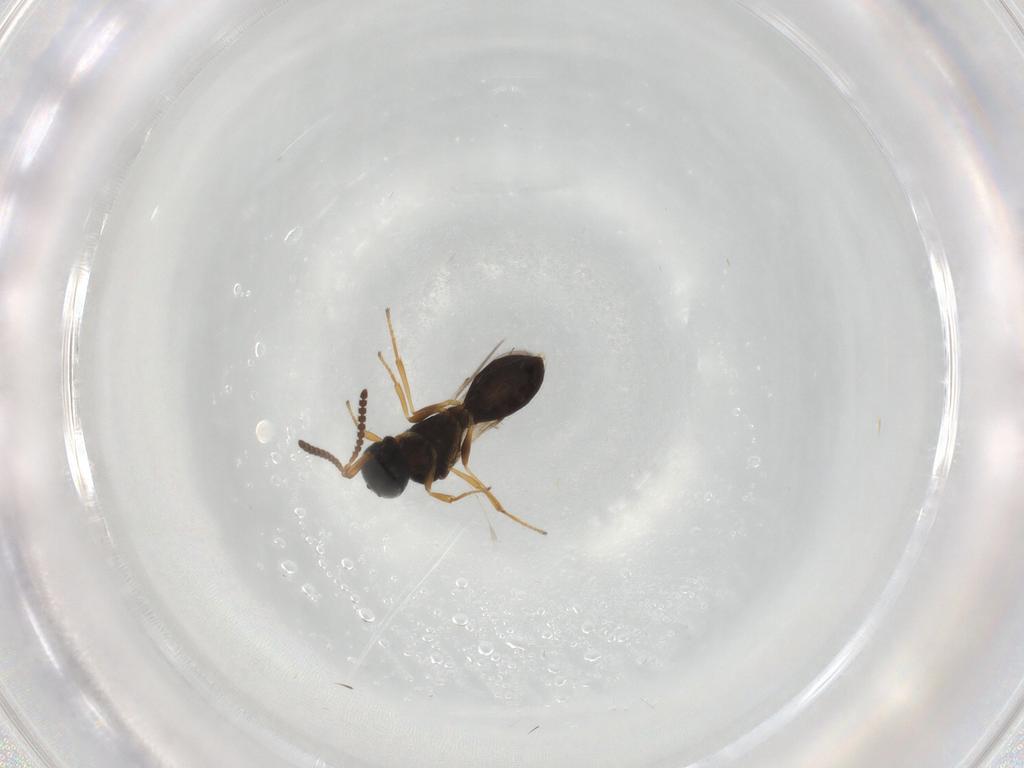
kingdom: Animalia
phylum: Arthropoda
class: Insecta
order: Hymenoptera
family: Scelionidae
